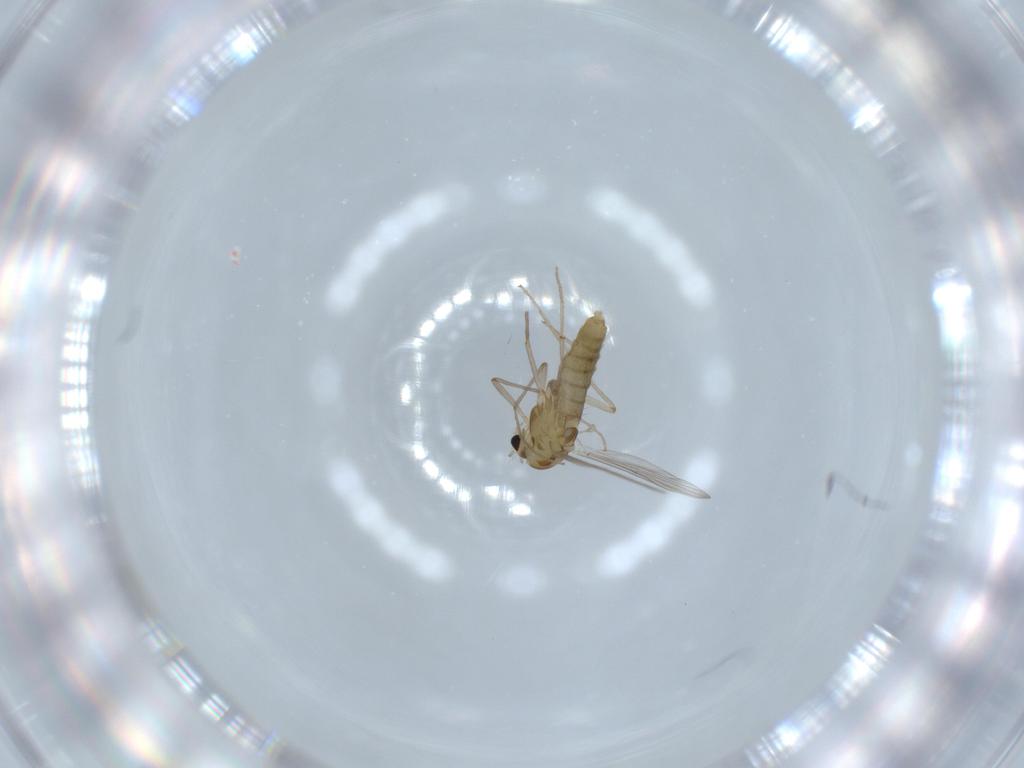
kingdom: Animalia
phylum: Arthropoda
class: Insecta
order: Diptera
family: Chironomidae
